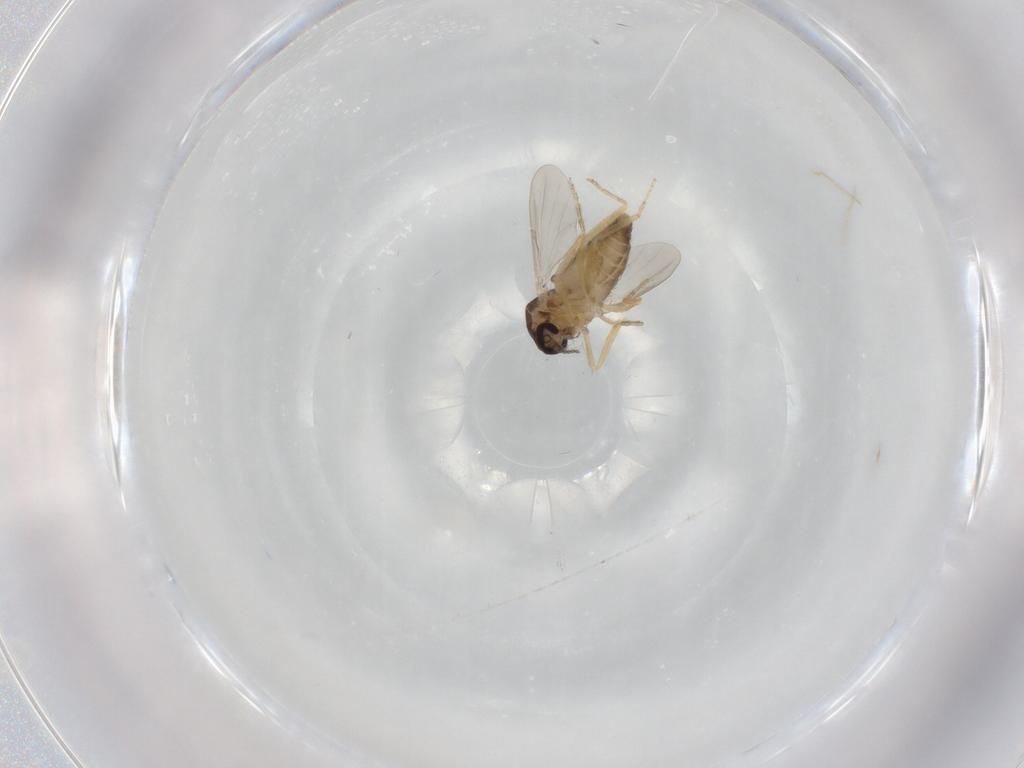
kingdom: Animalia
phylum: Arthropoda
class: Insecta
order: Diptera
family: Ceratopogonidae
